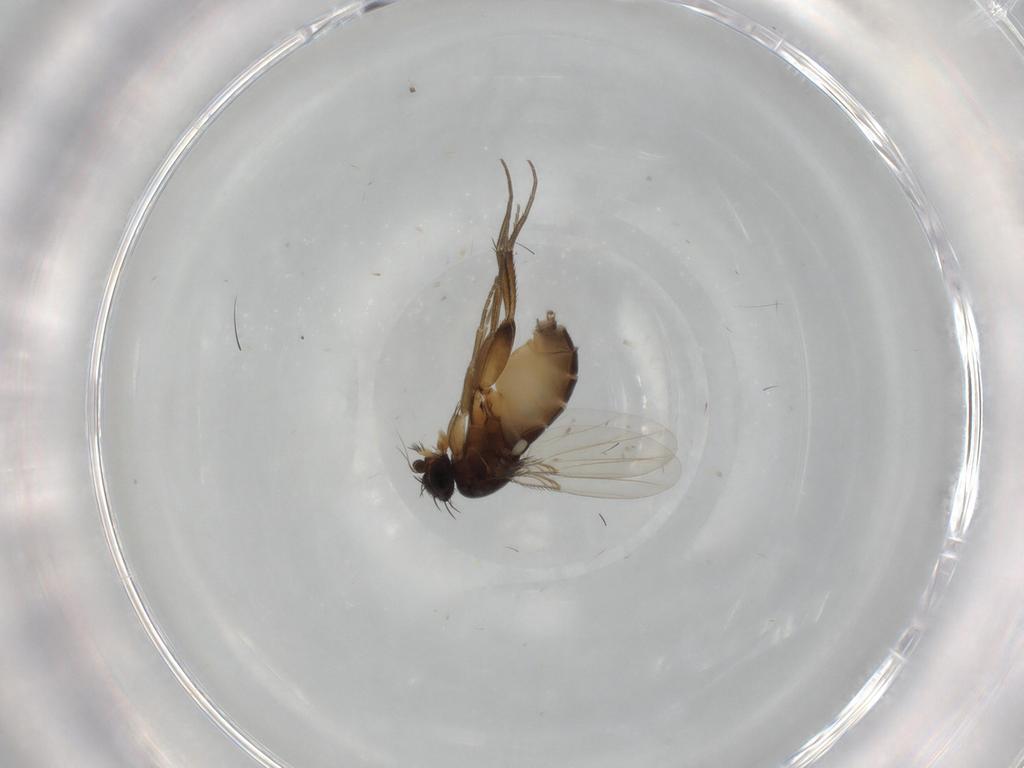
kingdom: Animalia
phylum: Arthropoda
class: Insecta
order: Diptera
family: Phoridae
